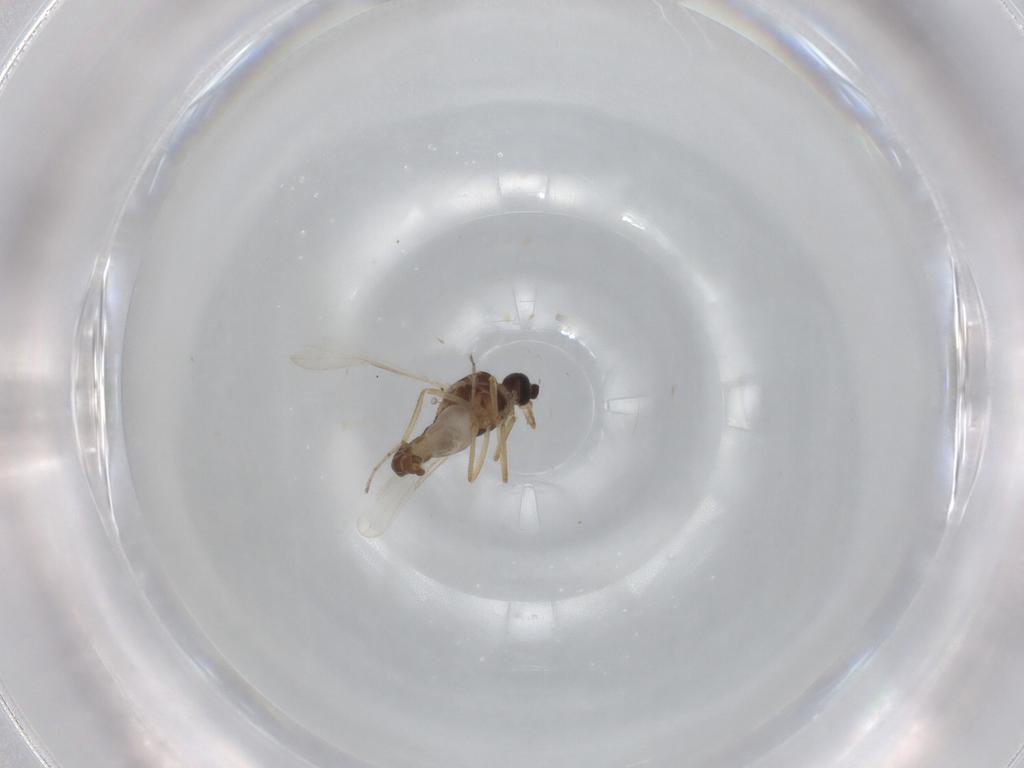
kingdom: Animalia
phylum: Arthropoda
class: Insecta
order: Diptera
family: Ceratopogonidae
